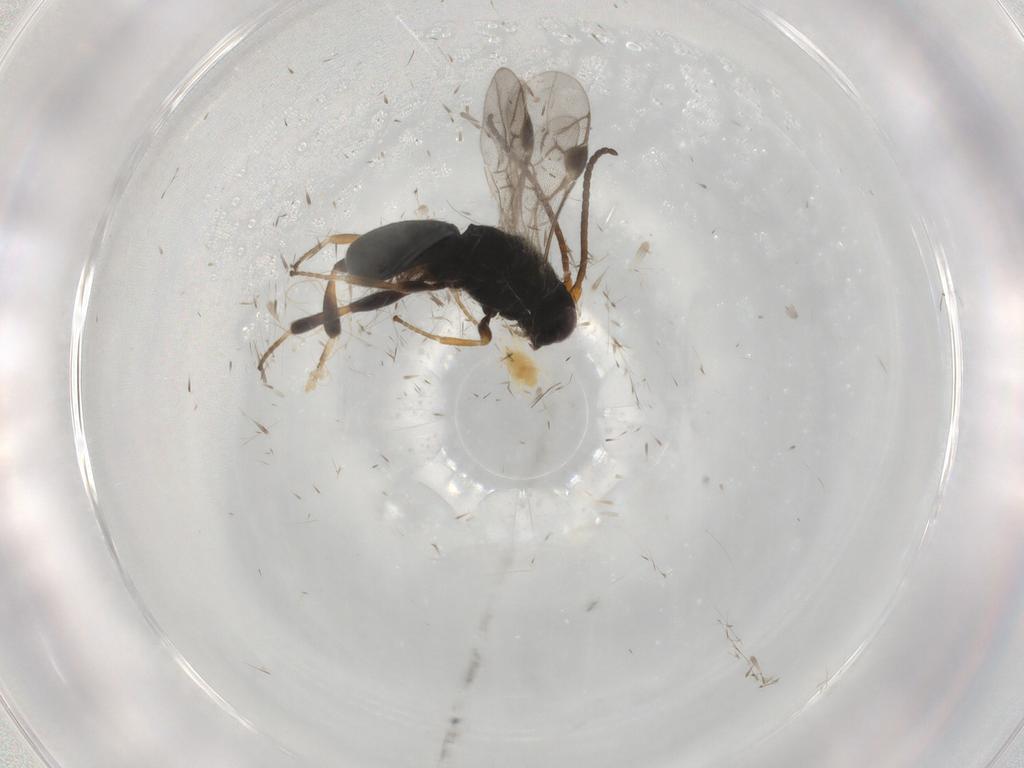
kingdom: Animalia
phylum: Arthropoda
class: Insecta
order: Hymenoptera
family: Braconidae
